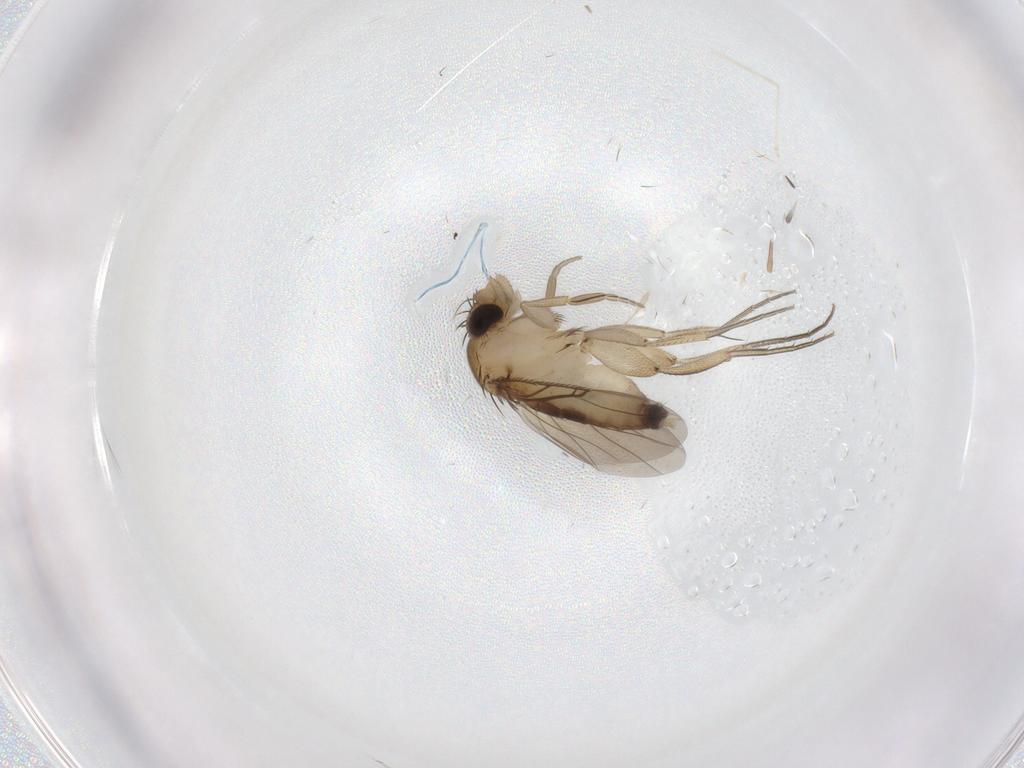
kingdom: Animalia
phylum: Arthropoda
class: Insecta
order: Diptera
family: Phoridae
